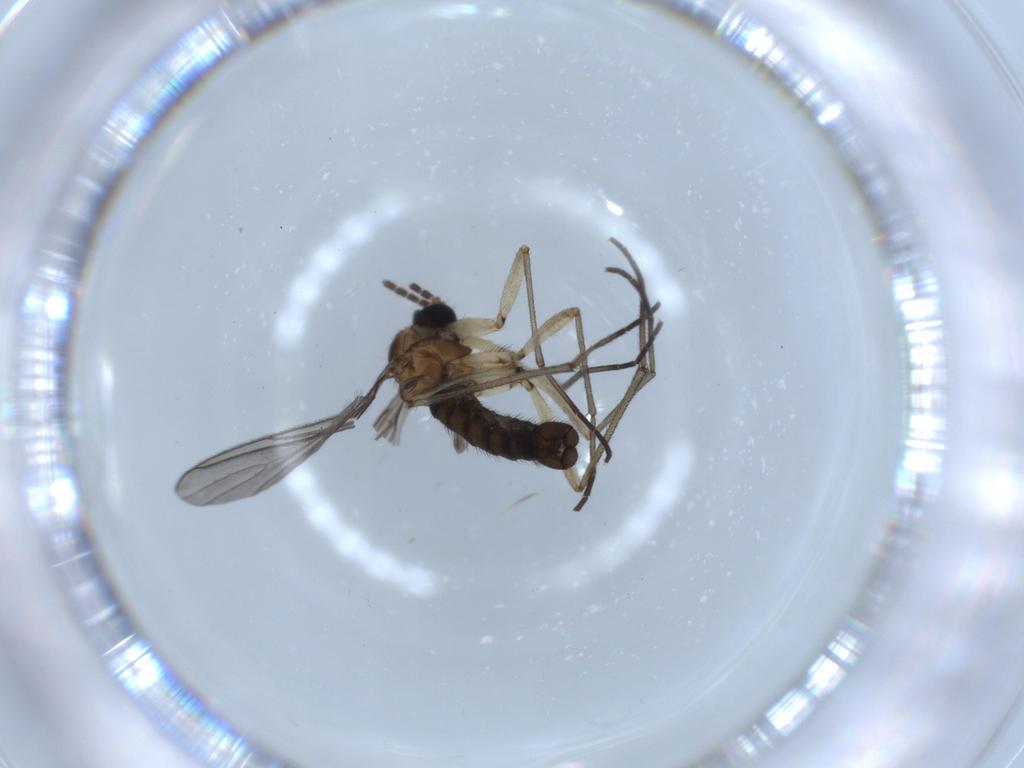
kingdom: Animalia
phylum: Arthropoda
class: Insecta
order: Diptera
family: Sciaridae
